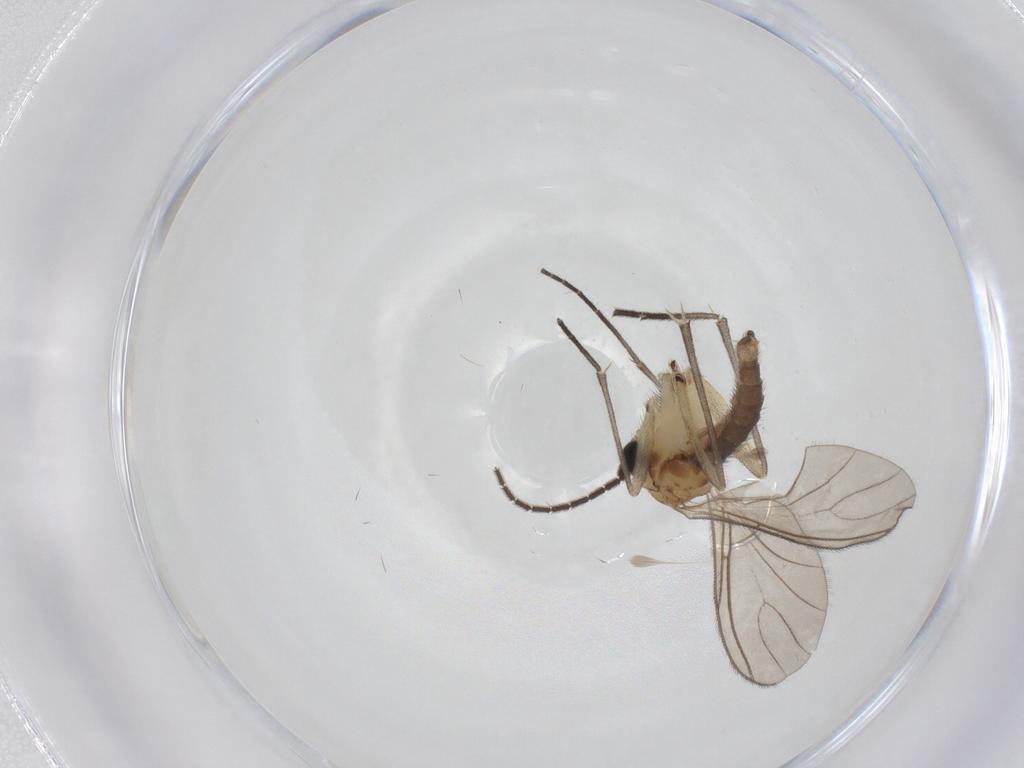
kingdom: Animalia
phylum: Arthropoda
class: Insecta
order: Diptera
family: Sciaridae
